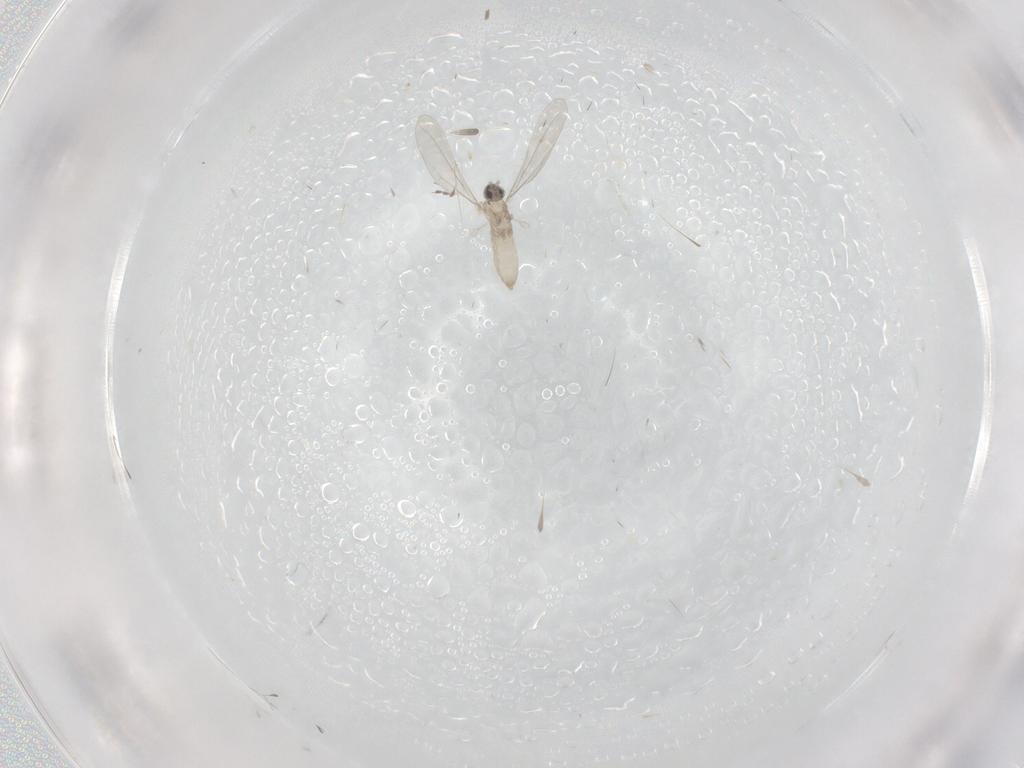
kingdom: Animalia
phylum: Arthropoda
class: Insecta
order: Diptera
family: Cecidomyiidae
